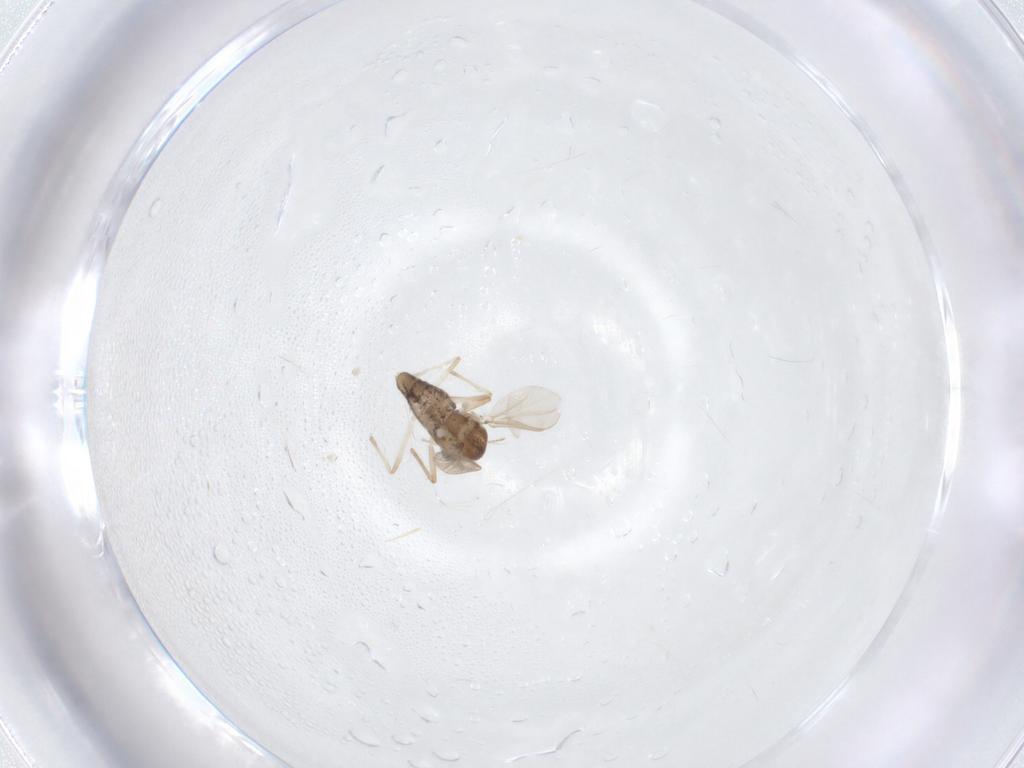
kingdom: Animalia
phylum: Arthropoda
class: Insecta
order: Diptera
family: Chironomidae
